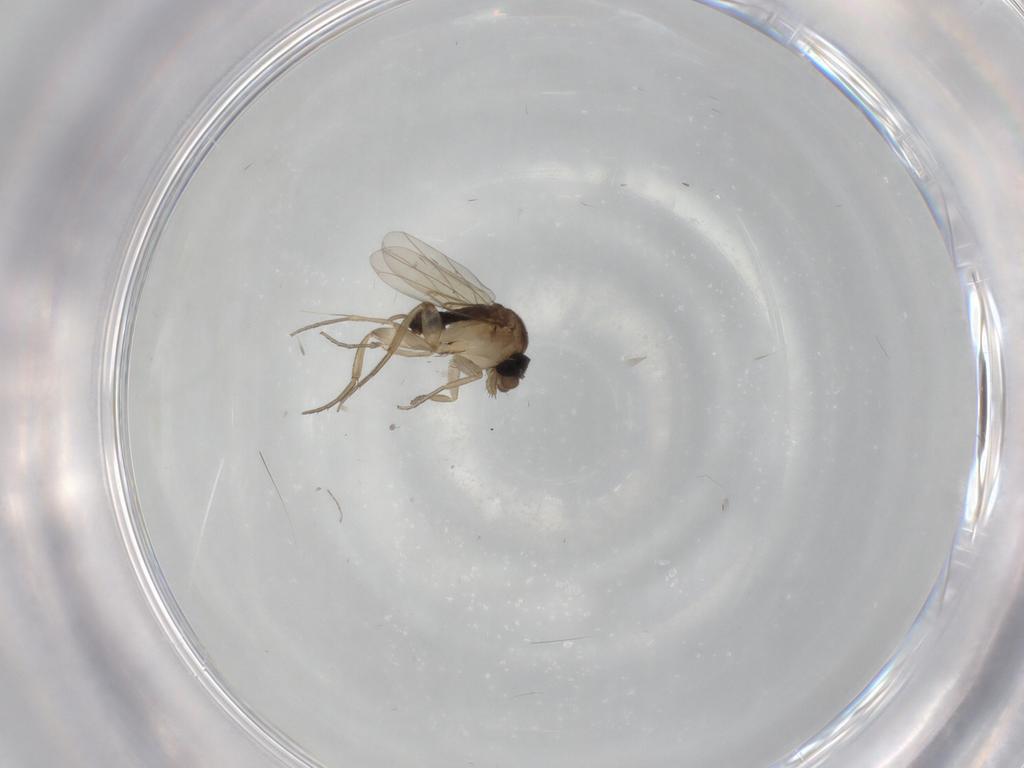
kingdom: Animalia
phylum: Arthropoda
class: Insecta
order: Diptera
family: Phoridae
